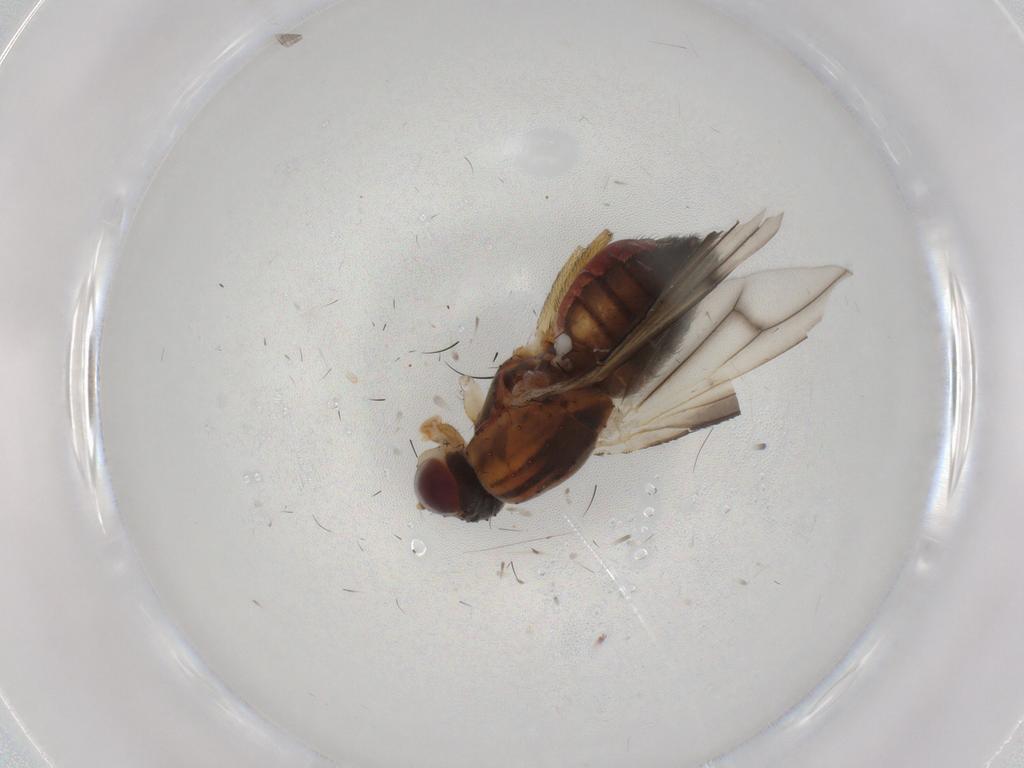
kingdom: Animalia
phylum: Arthropoda
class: Insecta
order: Diptera
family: Heleomyzidae
